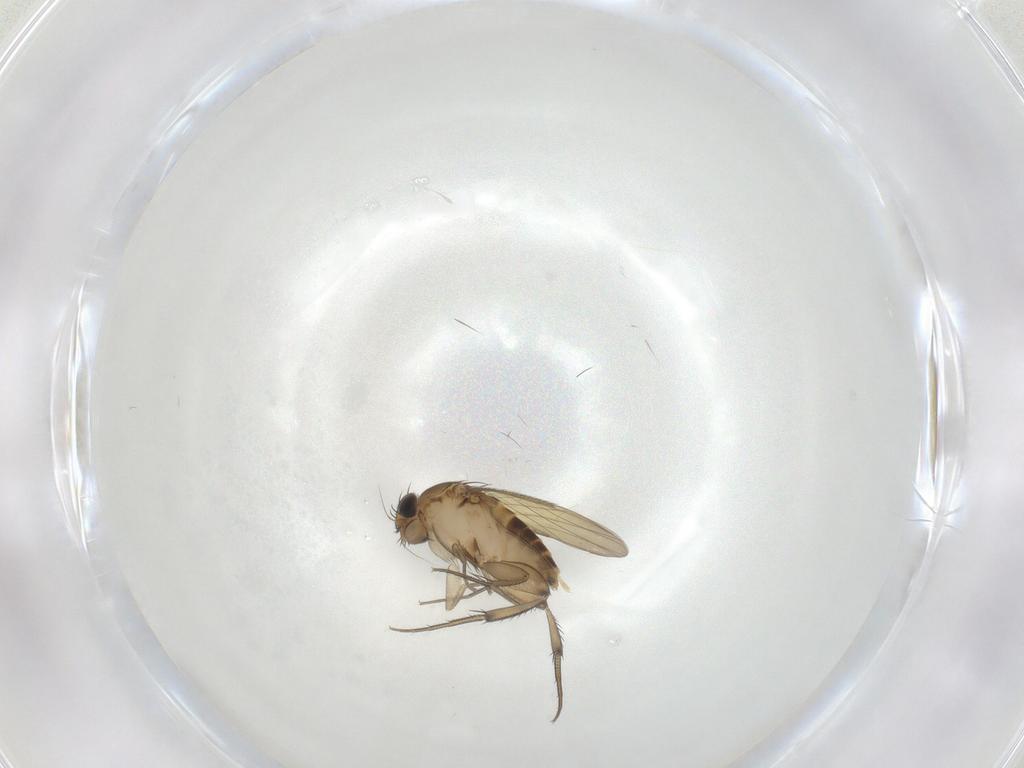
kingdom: Animalia
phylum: Arthropoda
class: Insecta
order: Diptera
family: Phoridae
